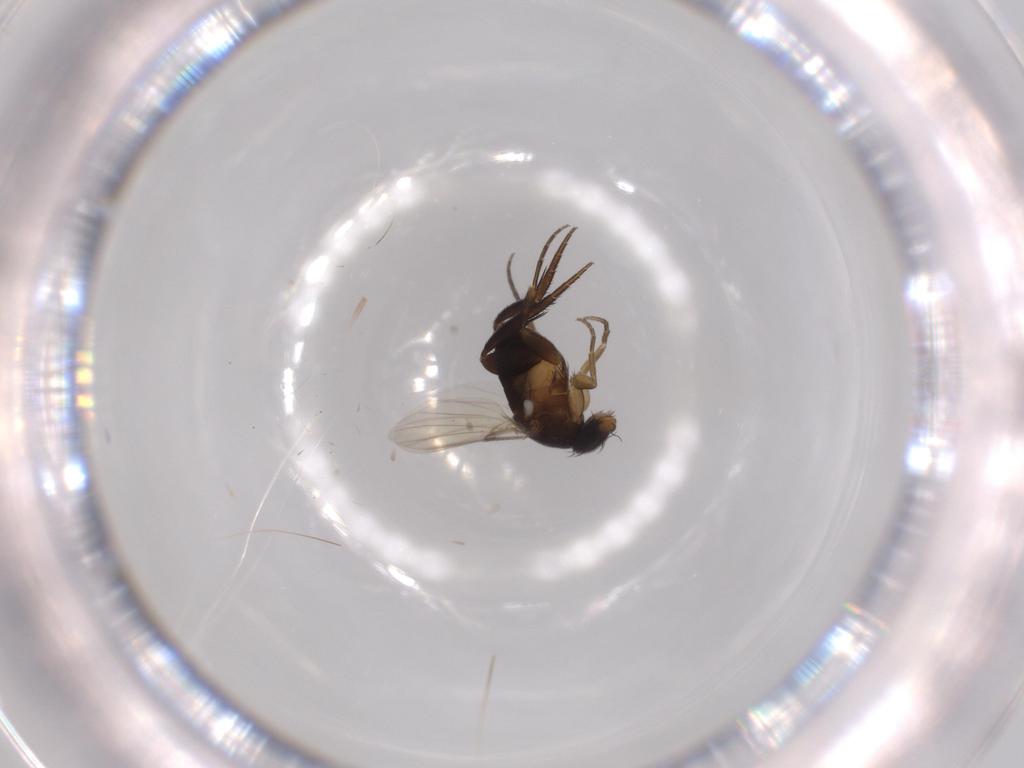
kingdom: Animalia
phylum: Arthropoda
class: Insecta
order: Diptera
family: Phoridae
